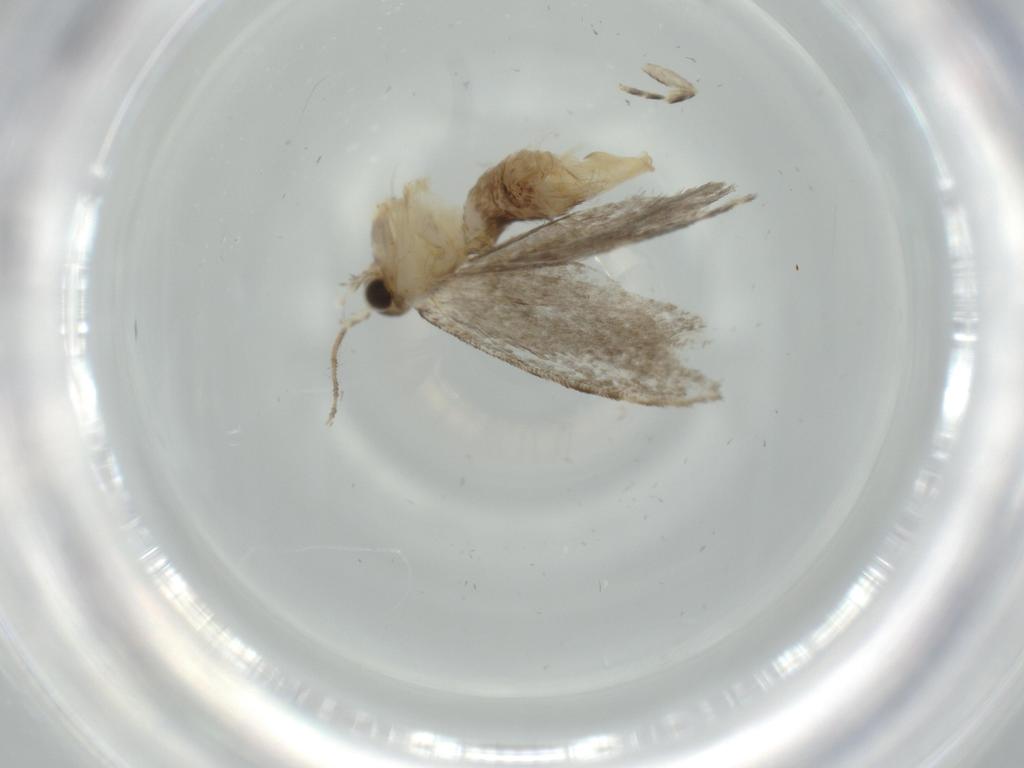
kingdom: Animalia
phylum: Arthropoda
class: Insecta
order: Lepidoptera
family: Tineidae
